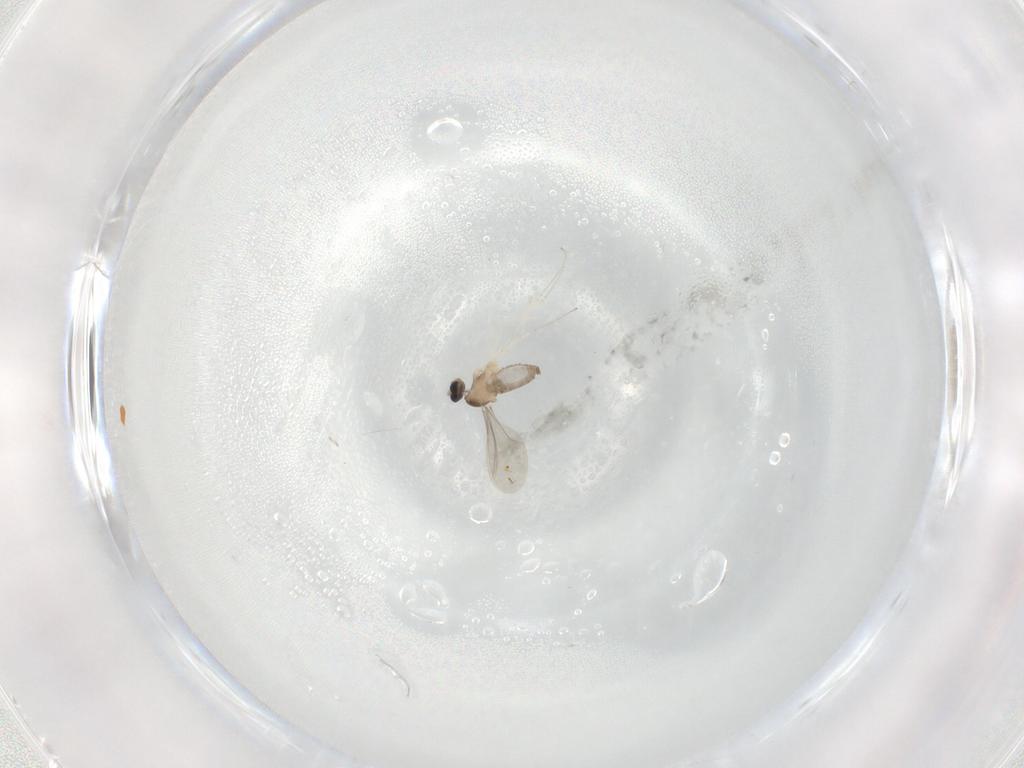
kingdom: Animalia
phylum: Arthropoda
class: Insecta
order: Diptera
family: Cecidomyiidae
